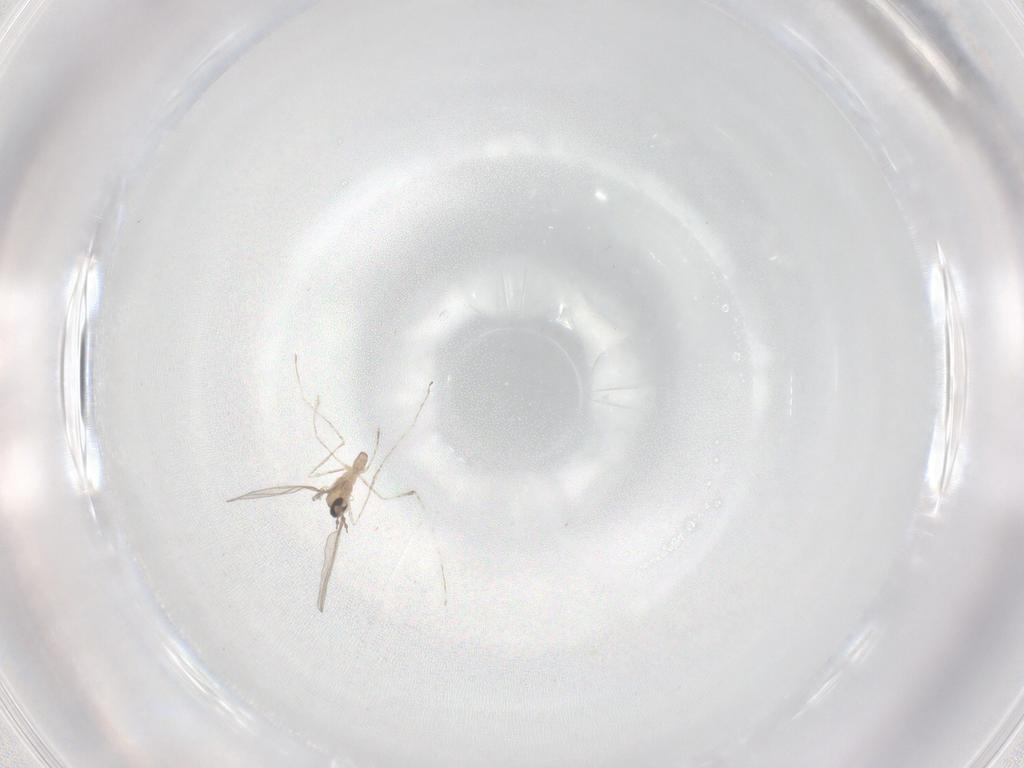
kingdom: Animalia
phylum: Arthropoda
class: Insecta
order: Diptera
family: Cecidomyiidae
